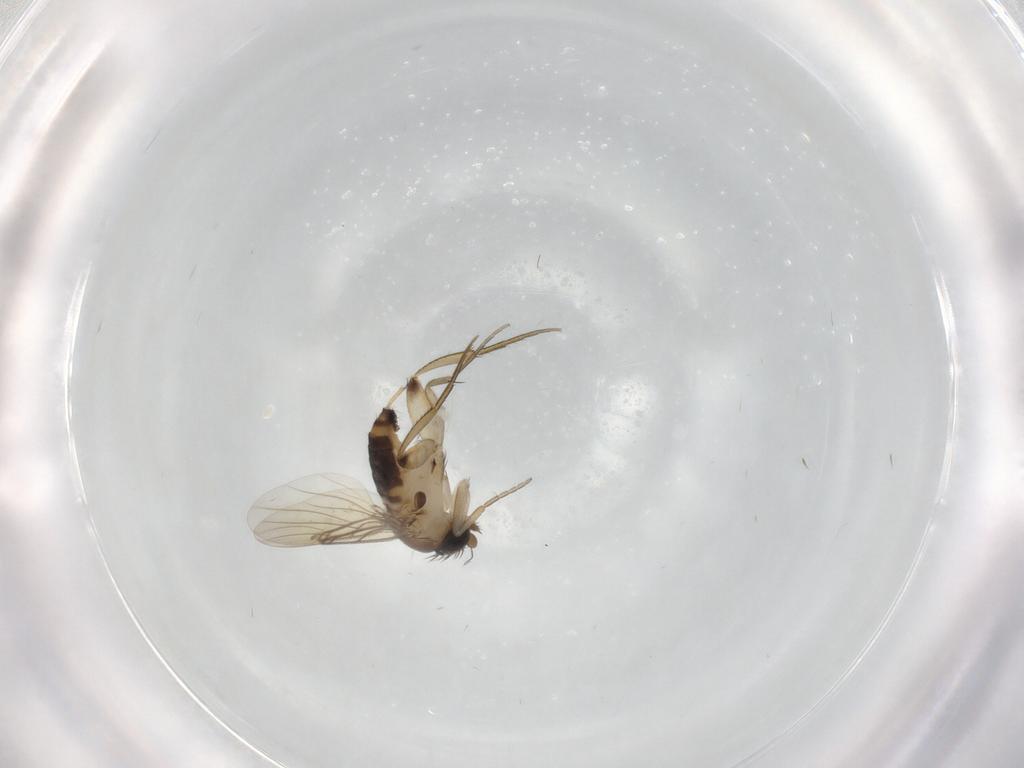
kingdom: Animalia
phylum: Arthropoda
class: Insecta
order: Diptera
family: Phoridae
